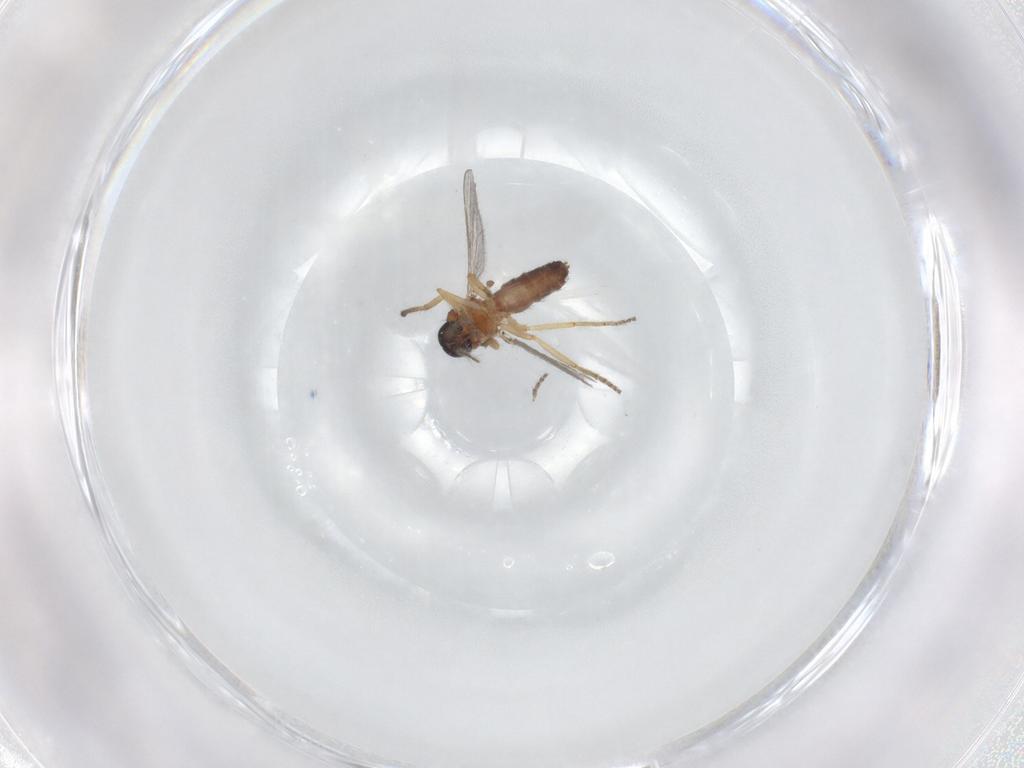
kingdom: Animalia
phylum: Arthropoda
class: Insecta
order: Diptera
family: Ceratopogonidae
